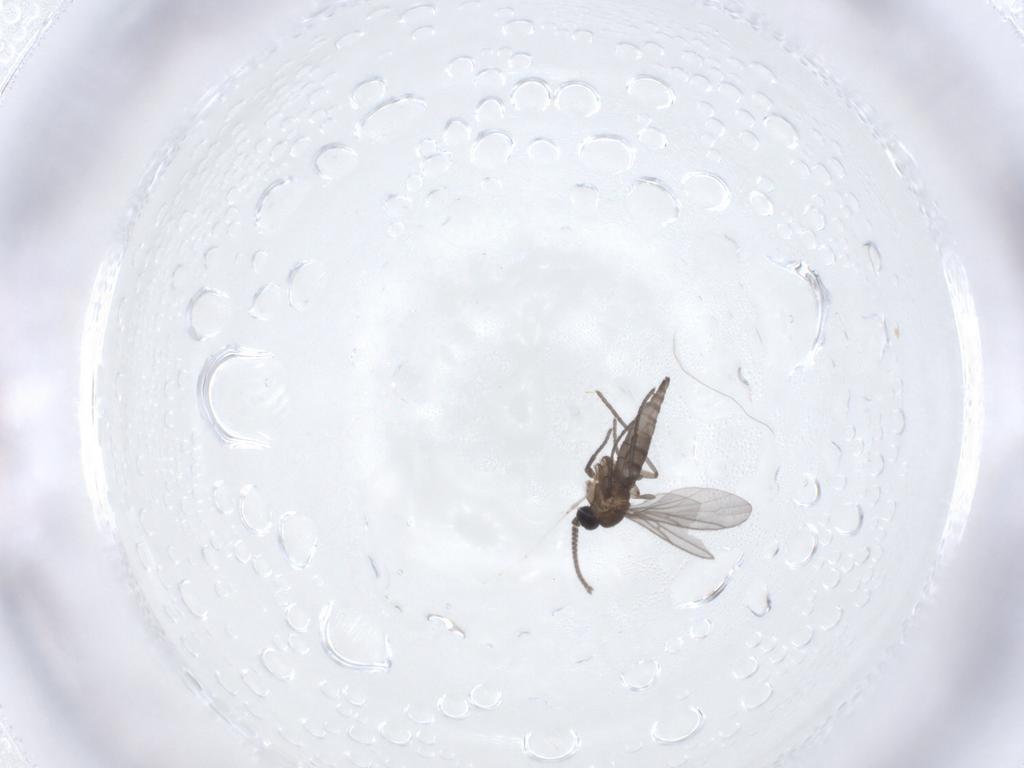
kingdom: Animalia
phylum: Arthropoda
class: Insecta
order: Diptera
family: Sciaridae
